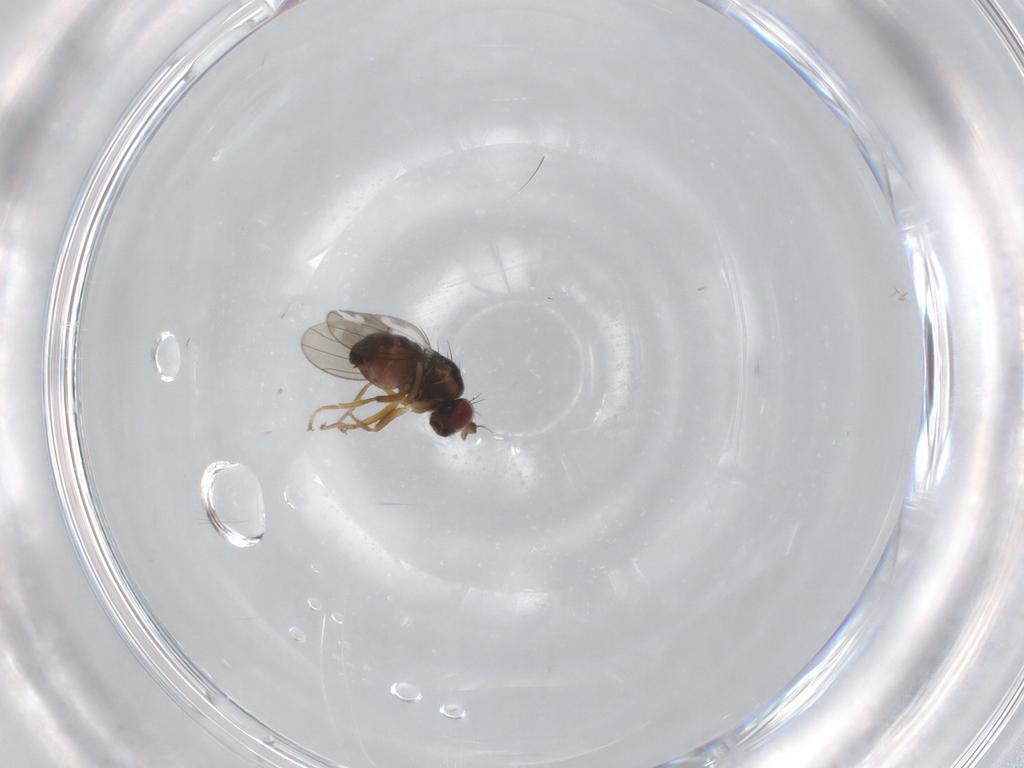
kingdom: Animalia
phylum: Arthropoda
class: Insecta
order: Diptera
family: Ephydridae
